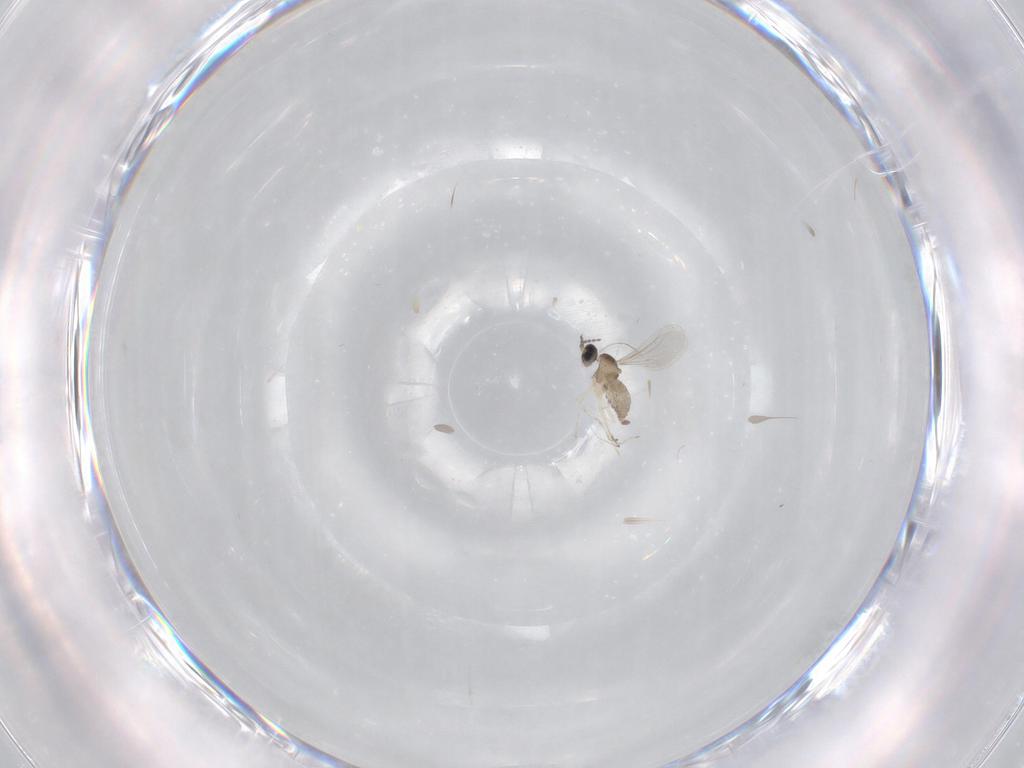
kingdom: Animalia
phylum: Arthropoda
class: Insecta
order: Diptera
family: Cecidomyiidae
